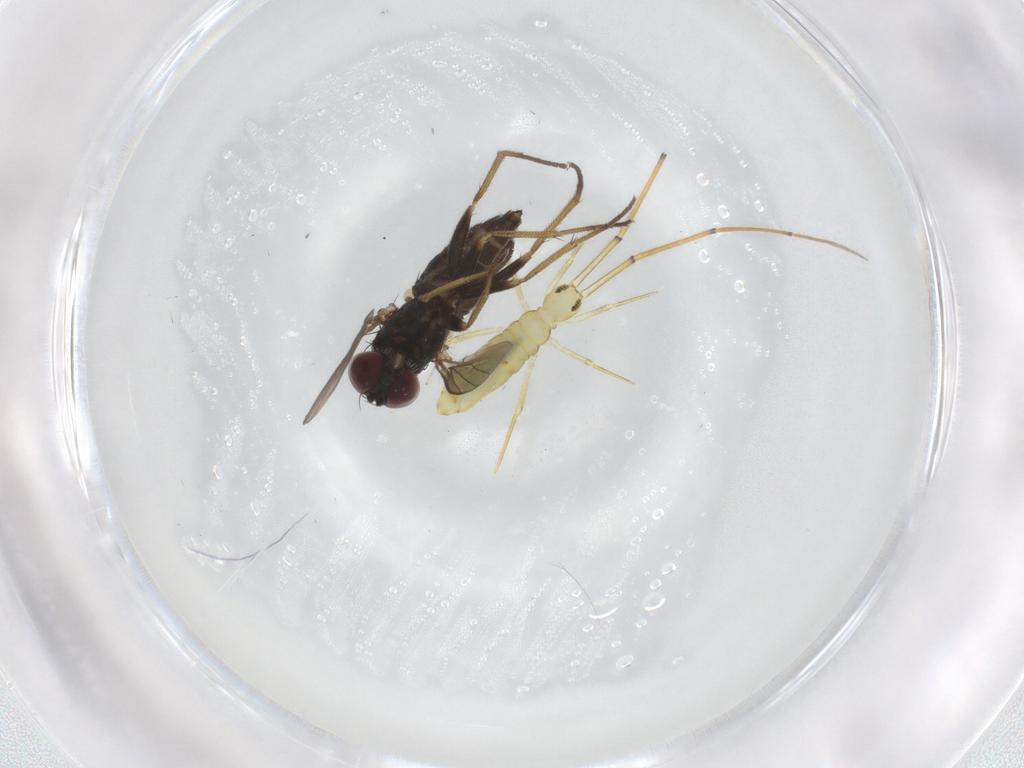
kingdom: Animalia
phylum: Arthropoda
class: Insecta
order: Diptera
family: Dolichopodidae
